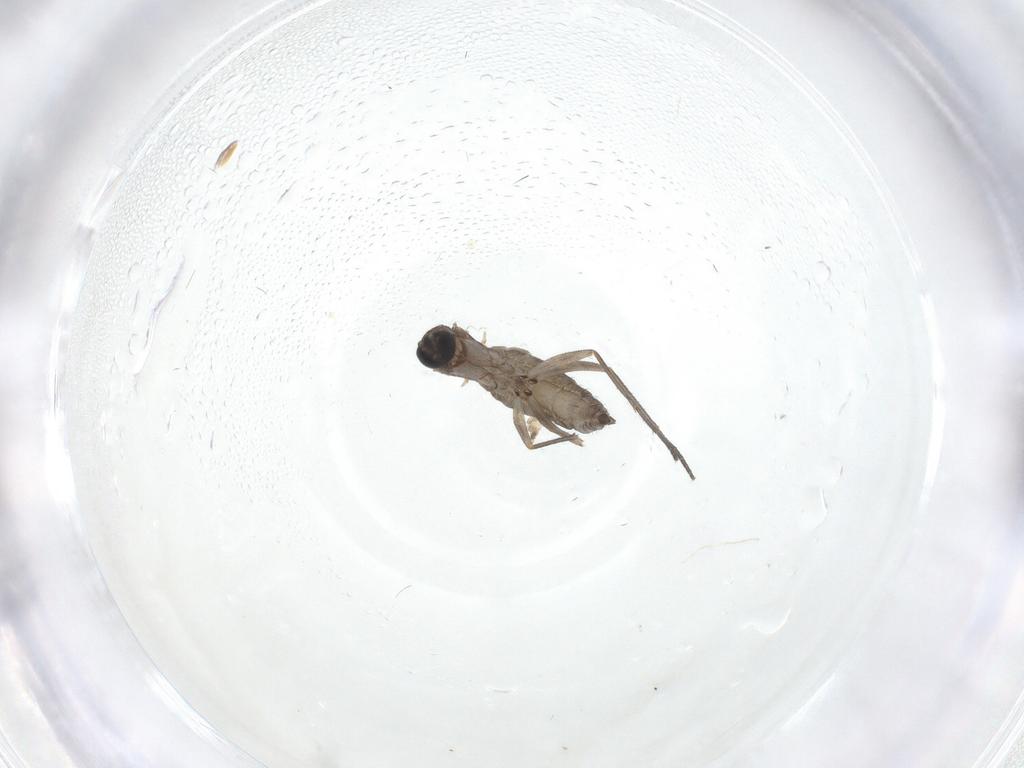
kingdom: Animalia
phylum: Arthropoda
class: Insecta
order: Diptera
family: Sciaridae
